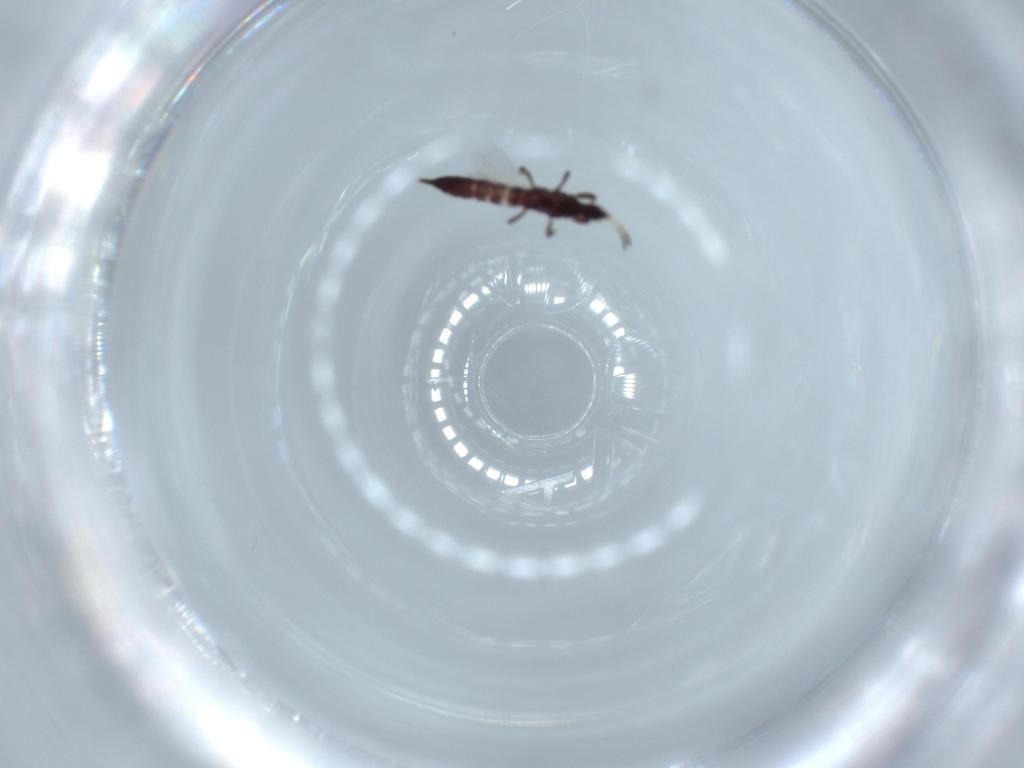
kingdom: Animalia
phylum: Arthropoda
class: Insecta
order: Thysanoptera
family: Phlaeothripidae
